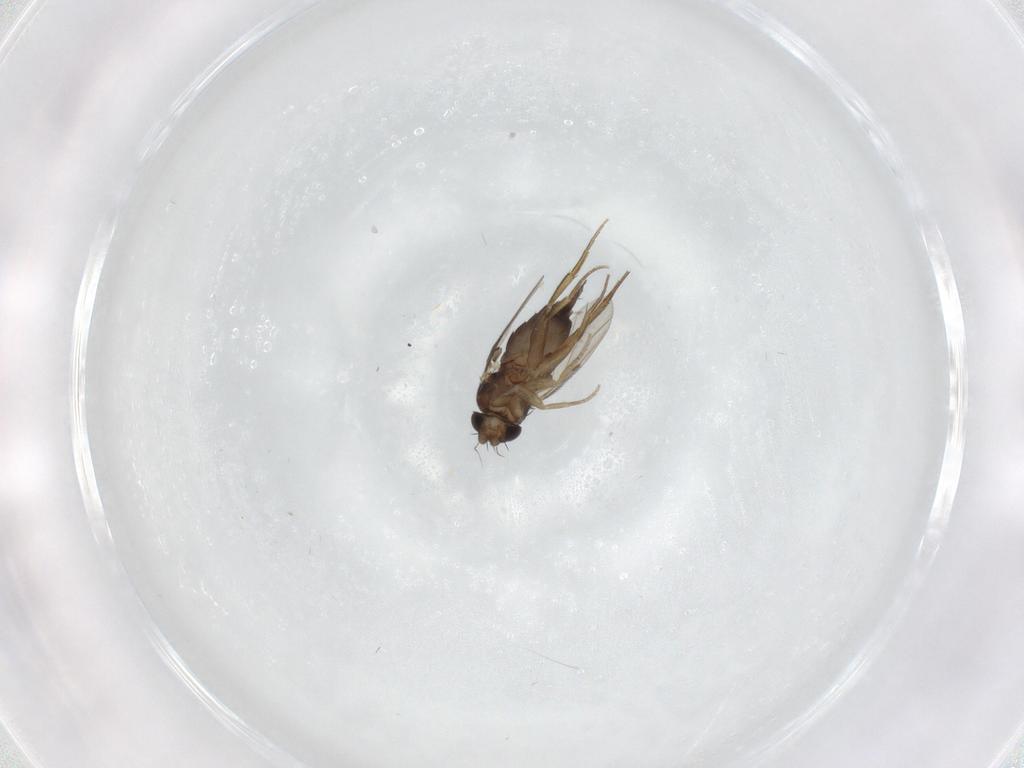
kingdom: Animalia
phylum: Arthropoda
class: Insecta
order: Diptera
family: Phoridae
